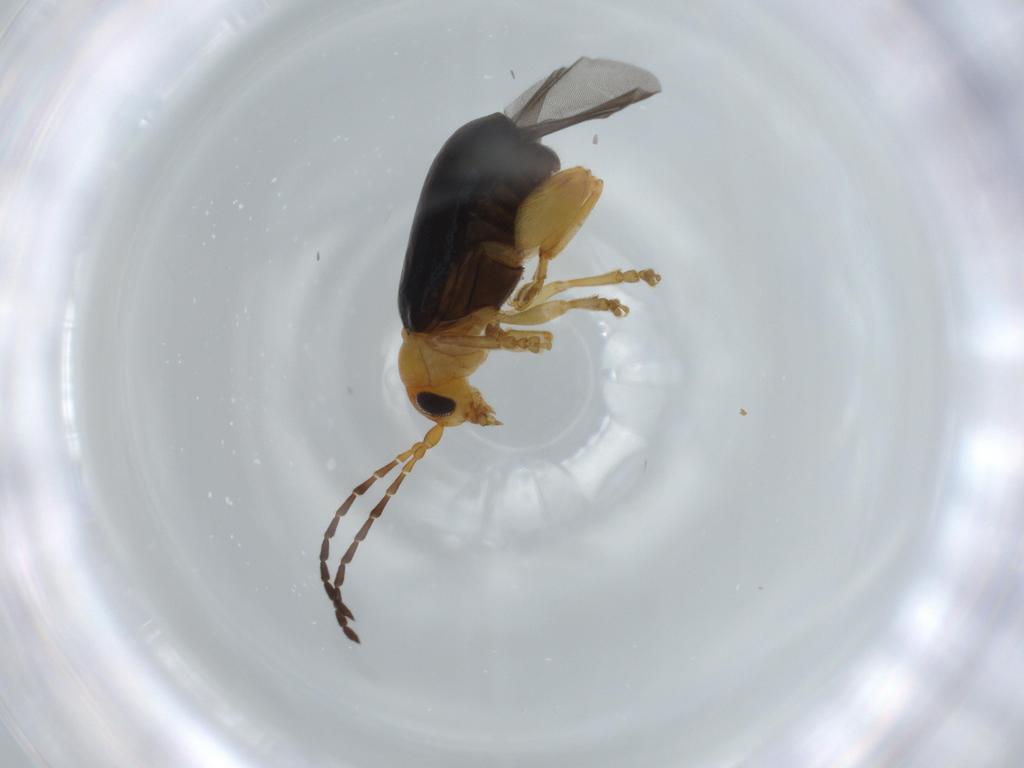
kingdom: Animalia
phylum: Arthropoda
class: Insecta
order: Coleoptera
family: Chrysomelidae
